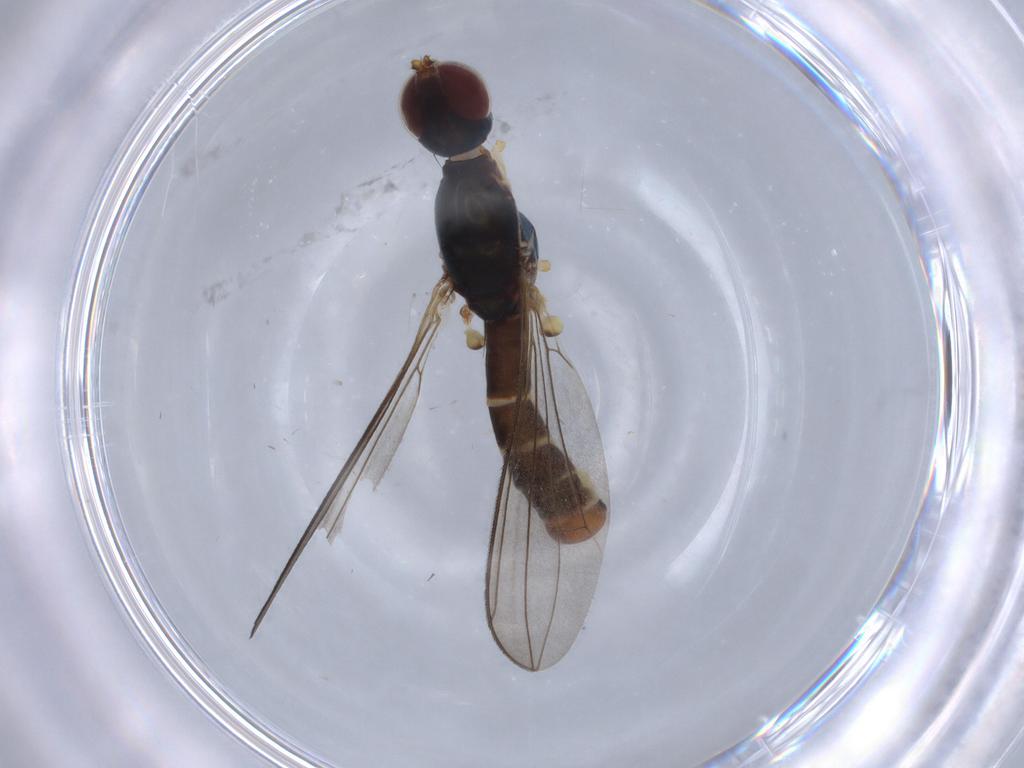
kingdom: Animalia
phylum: Arthropoda
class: Insecta
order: Diptera
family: Micropezidae
